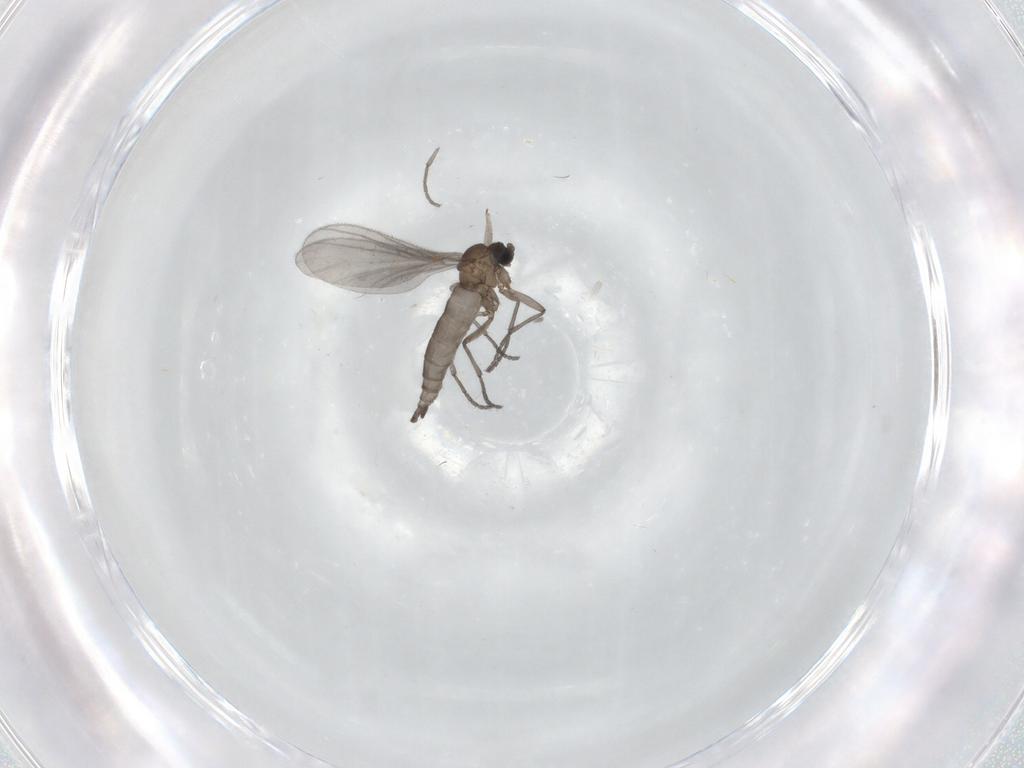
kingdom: Animalia
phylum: Arthropoda
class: Insecta
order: Diptera
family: Sciaridae
